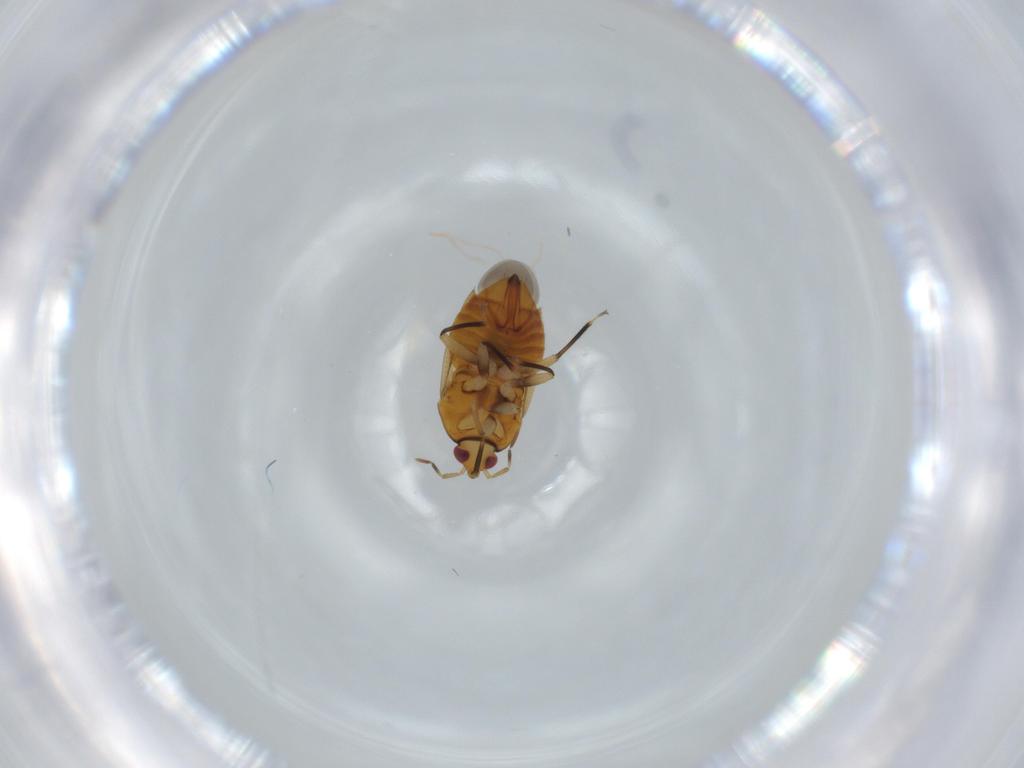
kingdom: Animalia
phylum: Arthropoda
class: Insecta
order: Hemiptera
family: Anthocoridae
